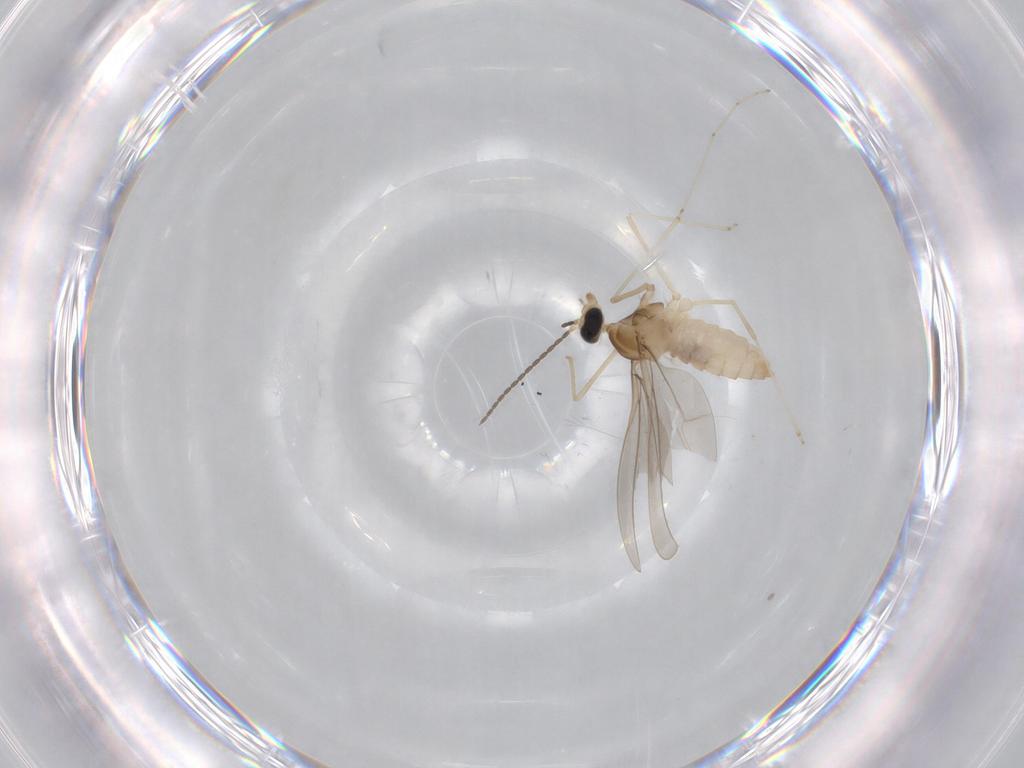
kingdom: Animalia
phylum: Arthropoda
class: Insecta
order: Diptera
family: Cecidomyiidae
